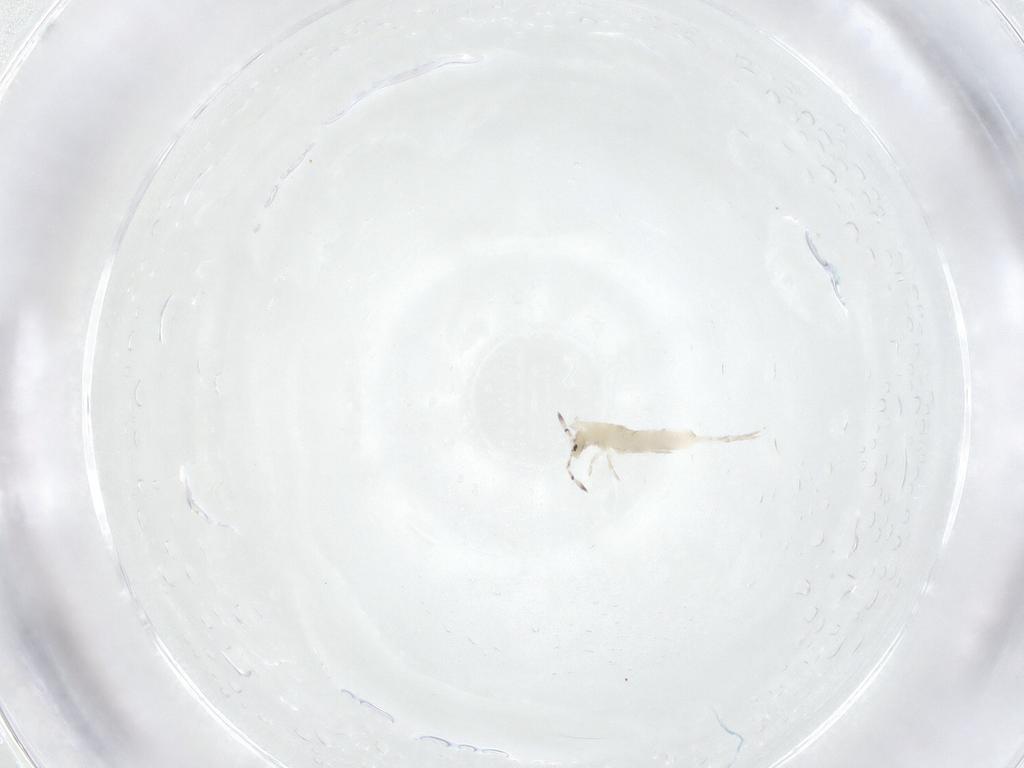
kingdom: Animalia
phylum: Arthropoda
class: Collembola
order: Entomobryomorpha
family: Entomobryidae
